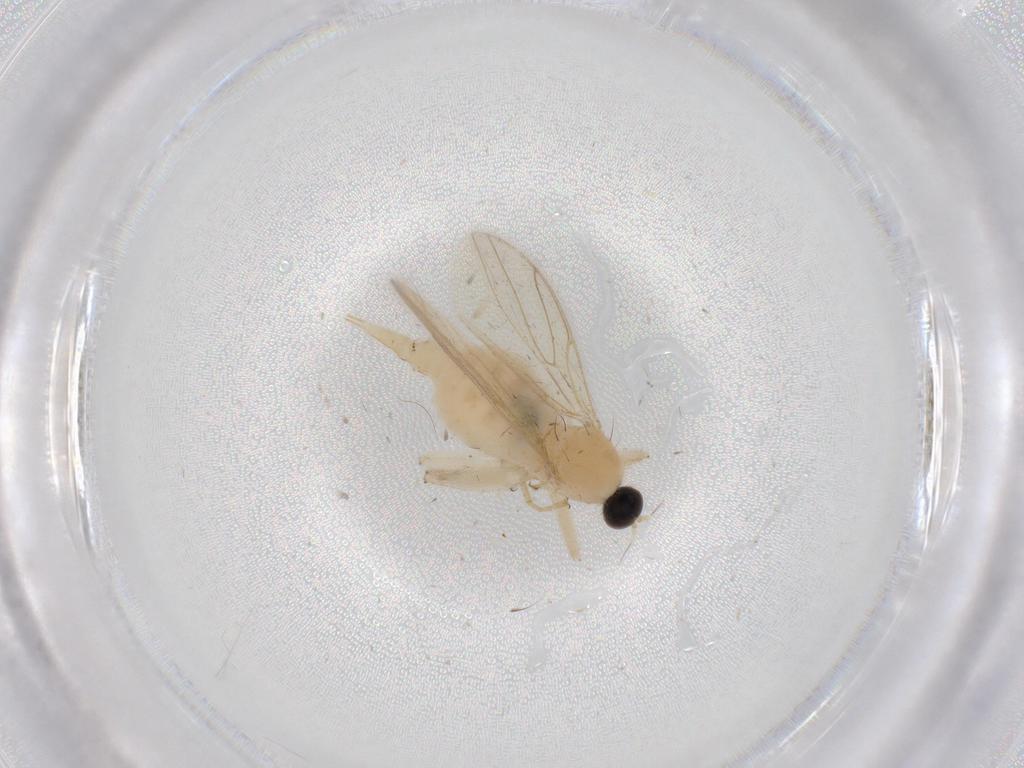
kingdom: Animalia
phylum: Arthropoda
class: Insecta
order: Diptera
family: Hybotidae
